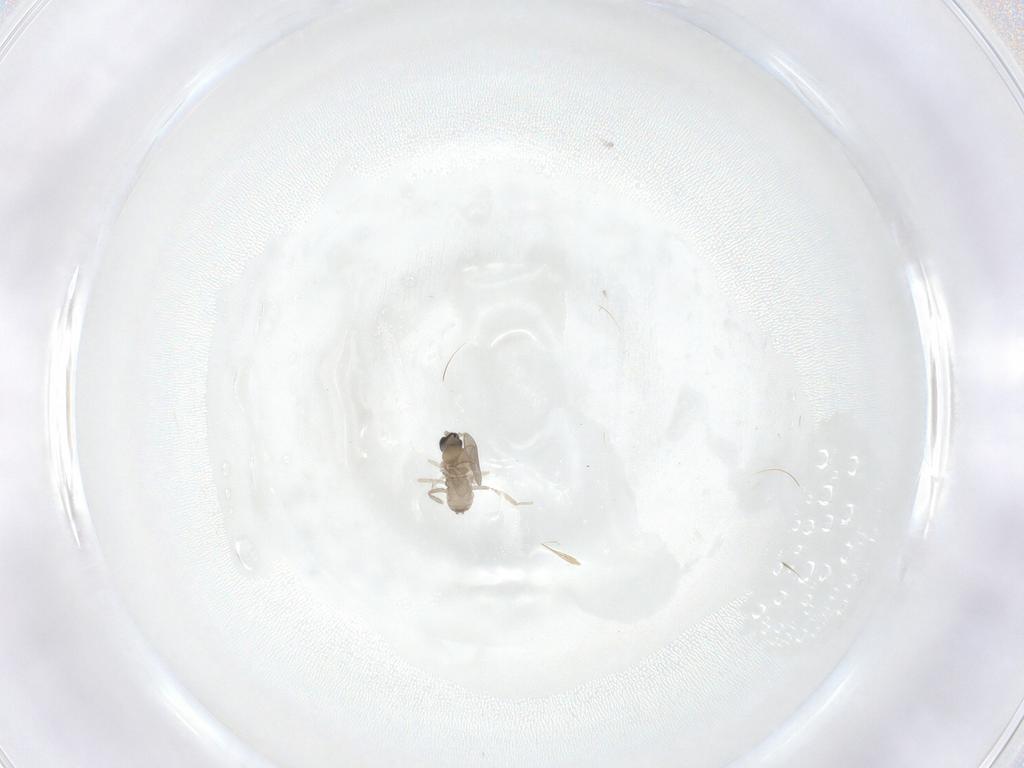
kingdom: Animalia
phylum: Arthropoda
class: Insecta
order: Diptera
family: Cecidomyiidae
